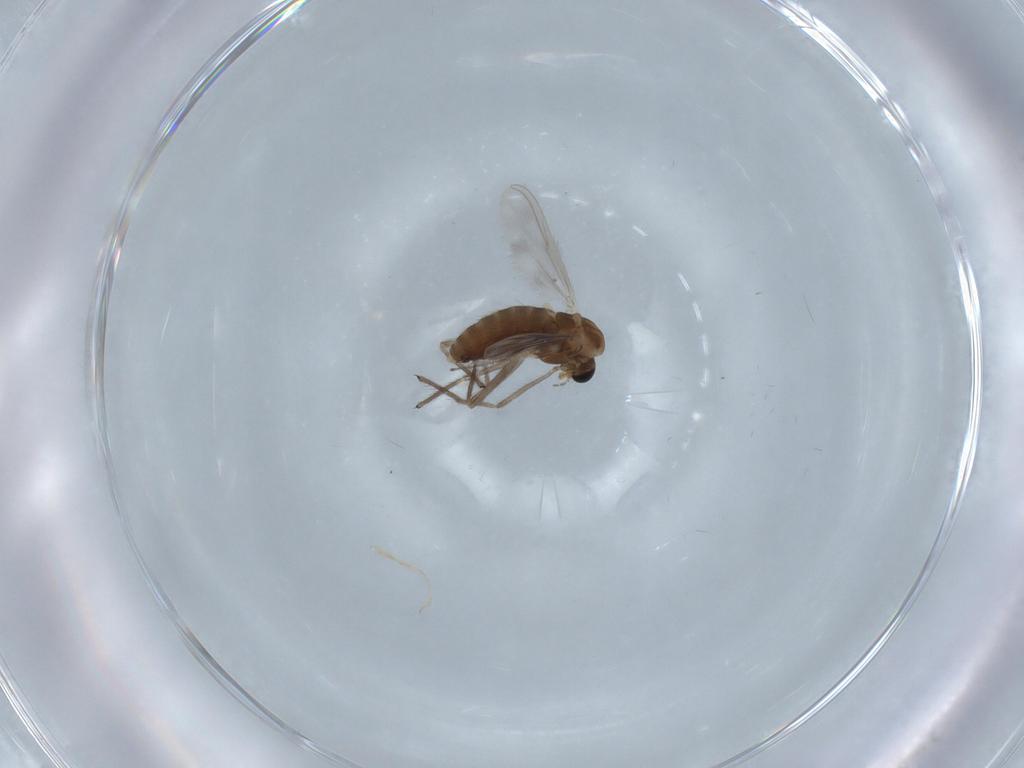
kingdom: Animalia
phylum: Arthropoda
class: Insecta
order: Diptera
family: Chironomidae
